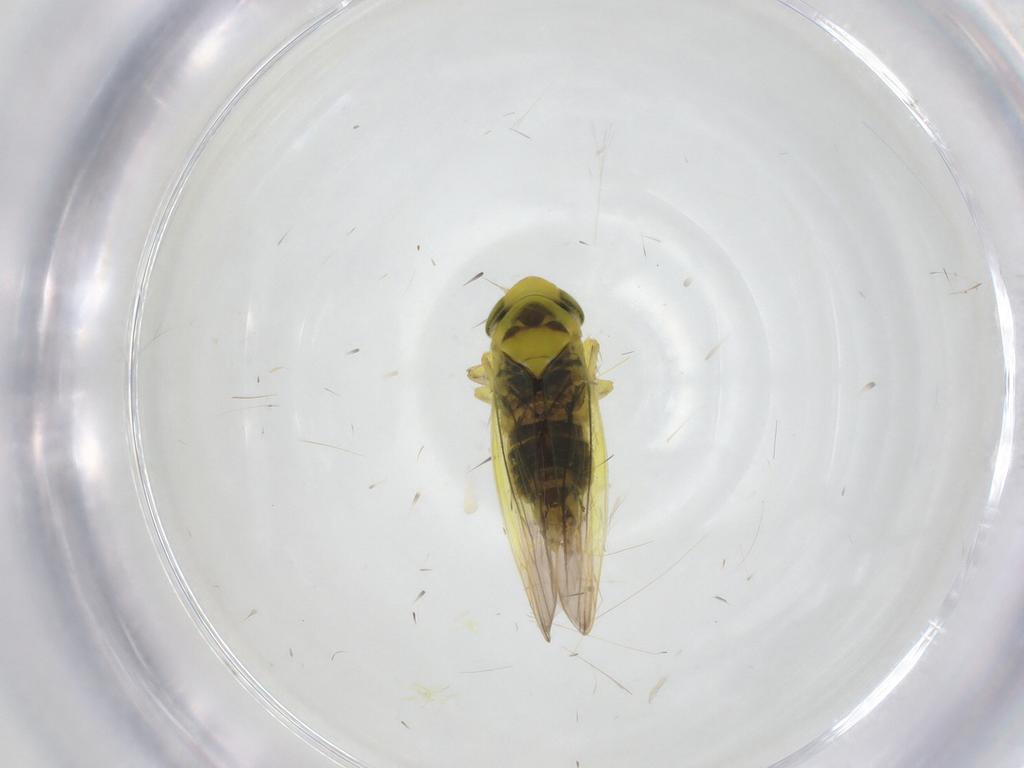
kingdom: Animalia
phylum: Arthropoda
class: Insecta
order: Hemiptera
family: Cicadellidae
